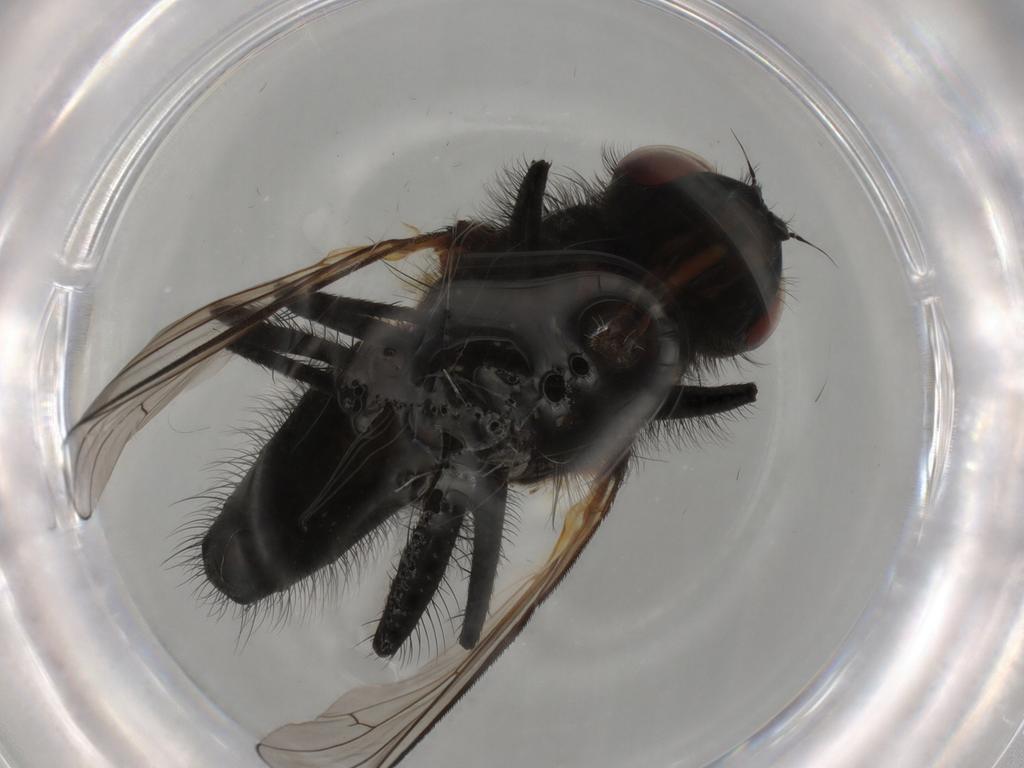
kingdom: Animalia
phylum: Arthropoda
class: Insecta
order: Diptera
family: Anthomyiidae
